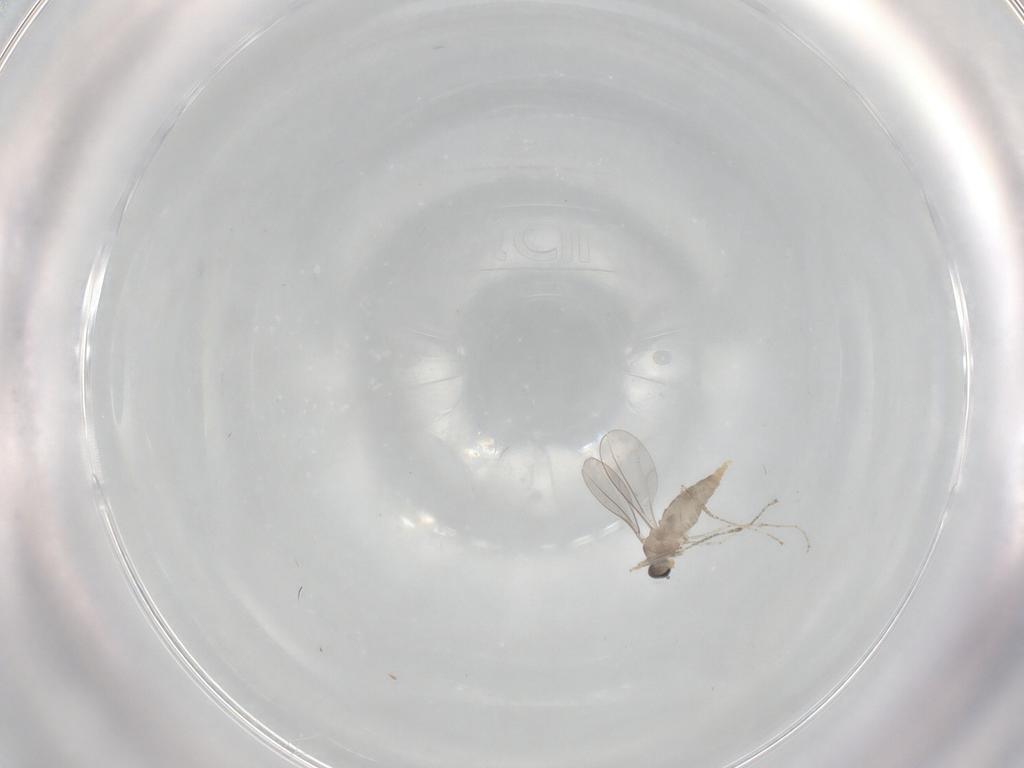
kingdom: Animalia
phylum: Arthropoda
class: Insecta
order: Diptera
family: Cecidomyiidae
